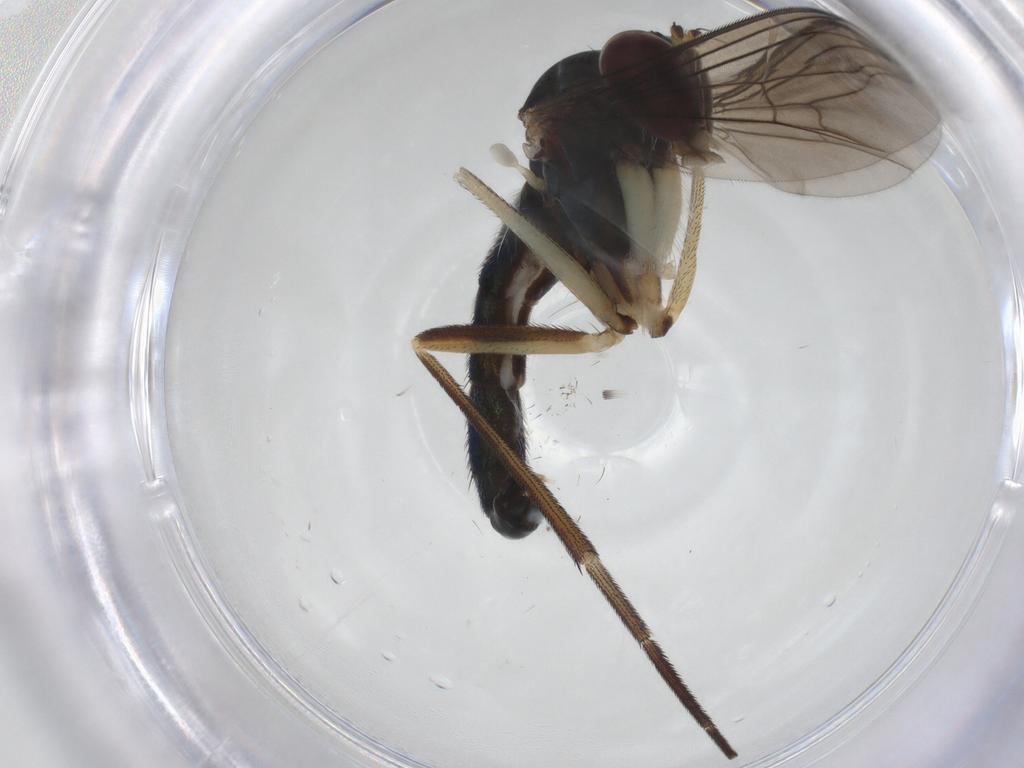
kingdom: Animalia
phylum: Arthropoda
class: Insecta
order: Diptera
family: Dolichopodidae
